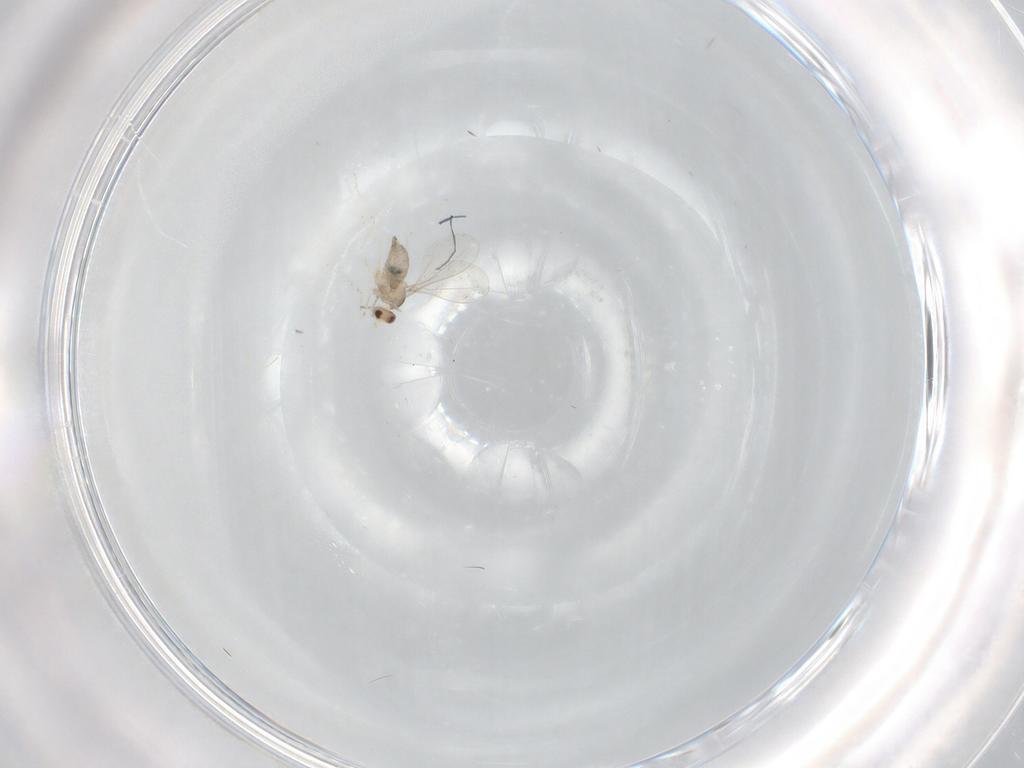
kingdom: Animalia
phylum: Arthropoda
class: Insecta
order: Diptera
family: Cecidomyiidae
